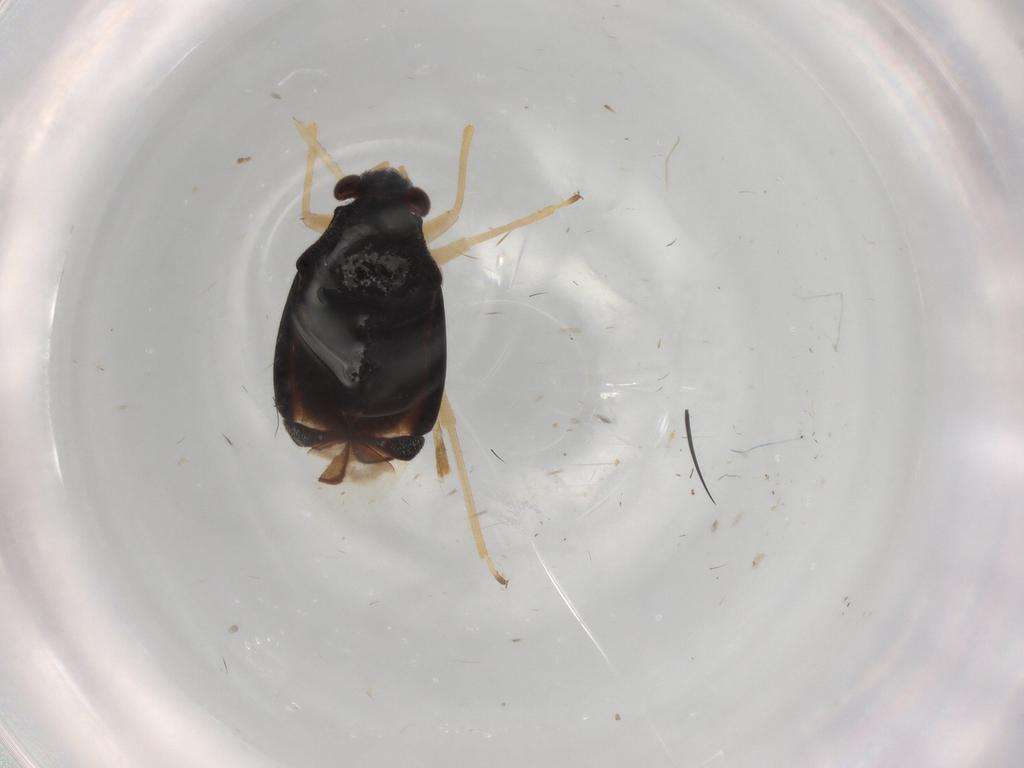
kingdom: Animalia
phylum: Arthropoda
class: Insecta
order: Hemiptera
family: Miridae
